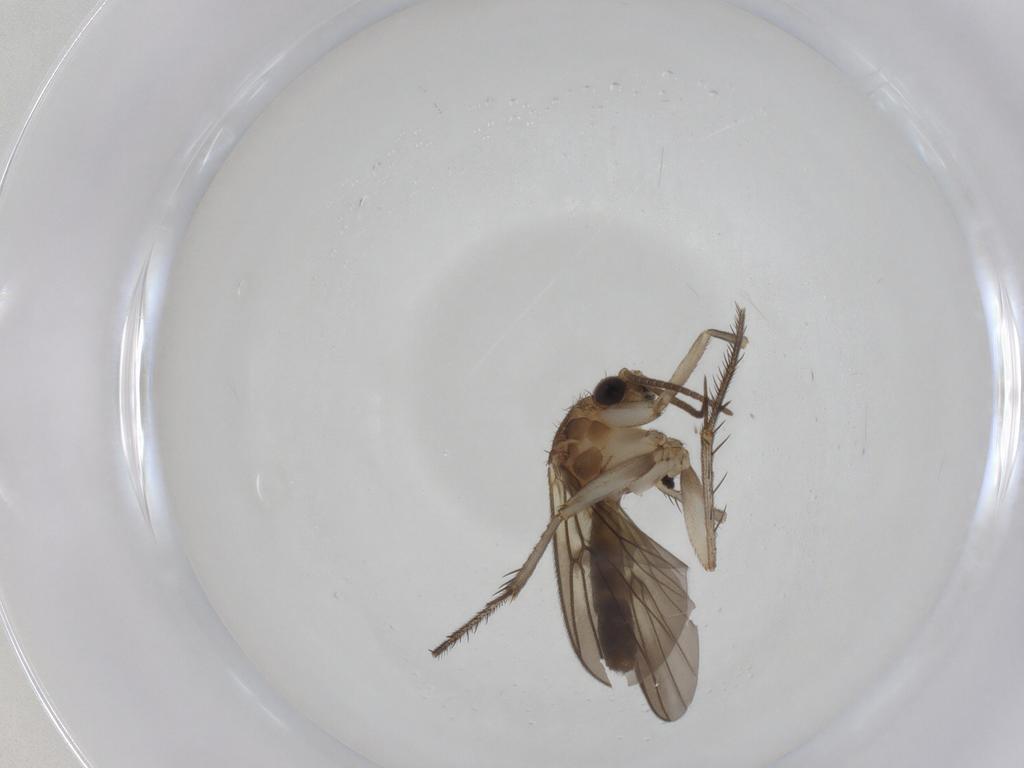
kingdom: Animalia
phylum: Arthropoda
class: Insecta
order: Diptera
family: Mycetophilidae
